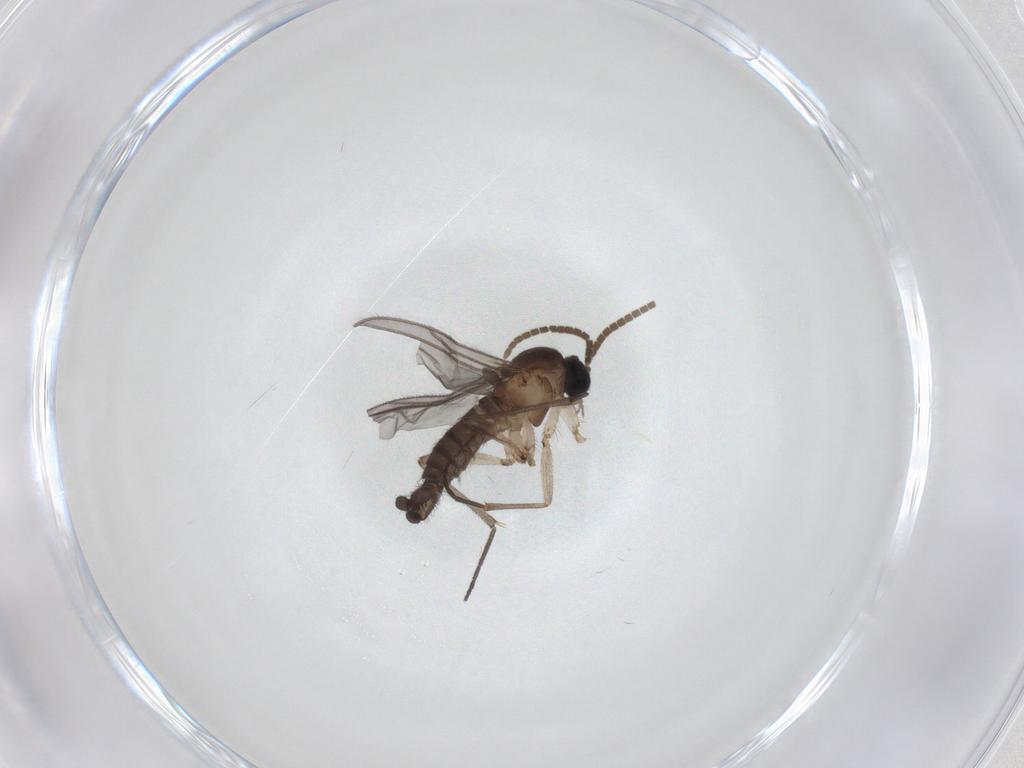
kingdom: Animalia
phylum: Arthropoda
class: Insecta
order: Diptera
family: Chironomidae
